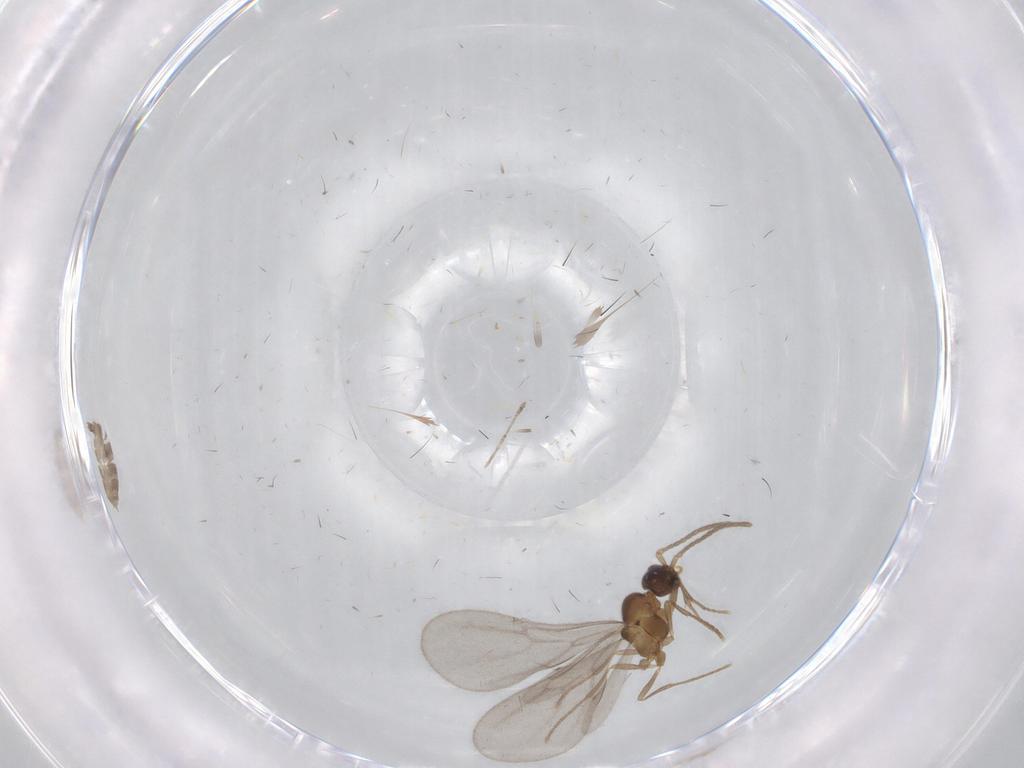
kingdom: Animalia
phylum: Arthropoda
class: Insecta
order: Hymenoptera
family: Formicidae
